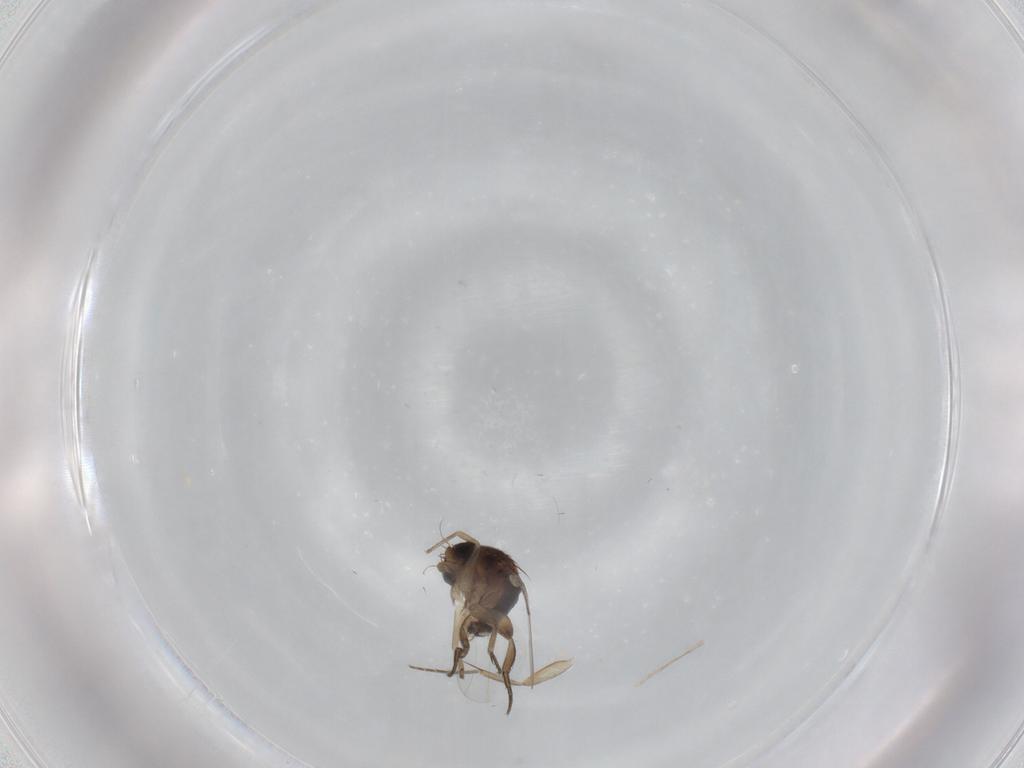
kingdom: Animalia
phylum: Arthropoda
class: Insecta
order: Diptera
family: Phoridae
